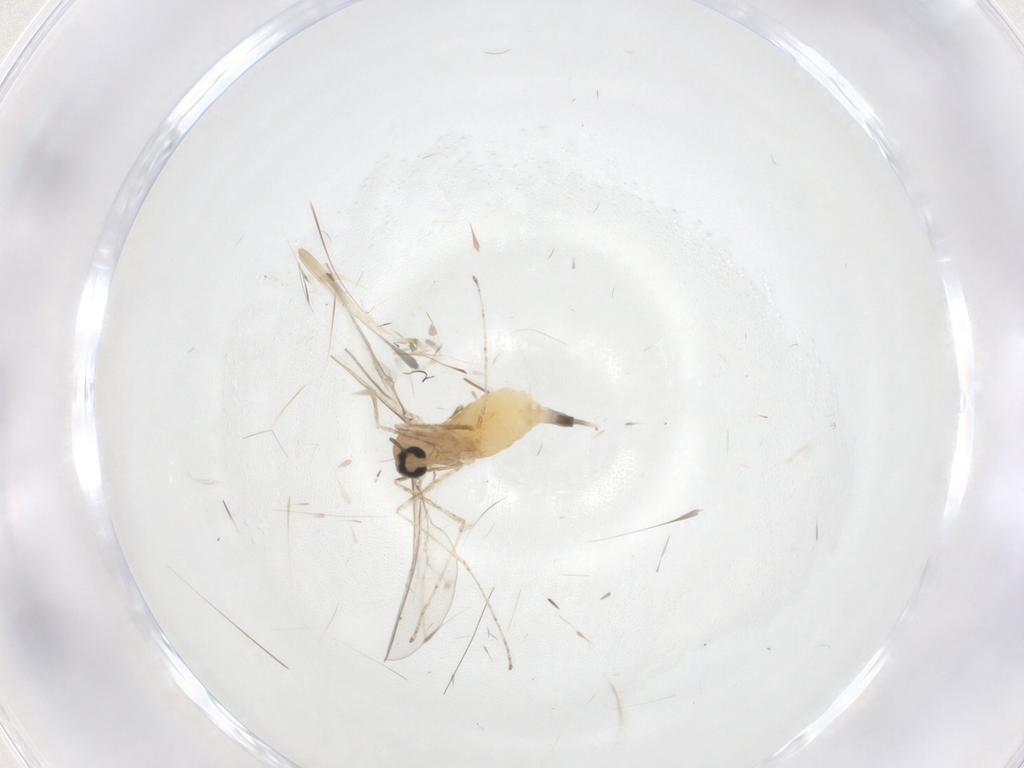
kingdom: Animalia
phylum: Arthropoda
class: Insecta
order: Diptera
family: Cecidomyiidae
